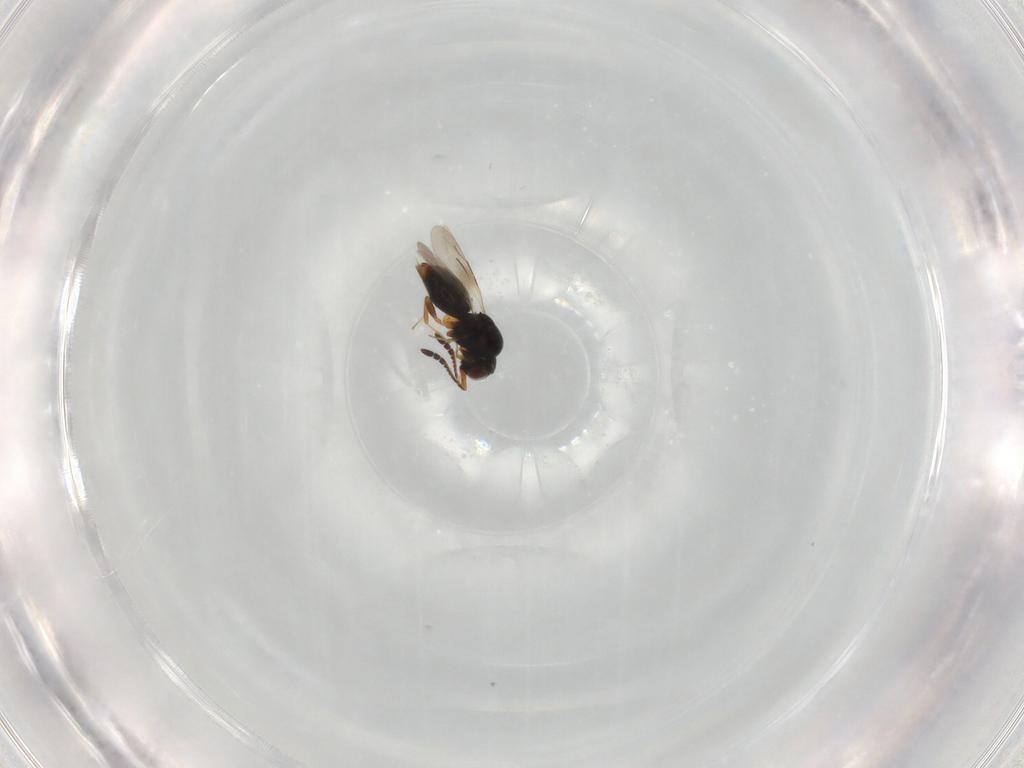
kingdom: Animalia
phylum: Arthropoda
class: Insecta
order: Hymenoptera
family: Ceraphronidae
